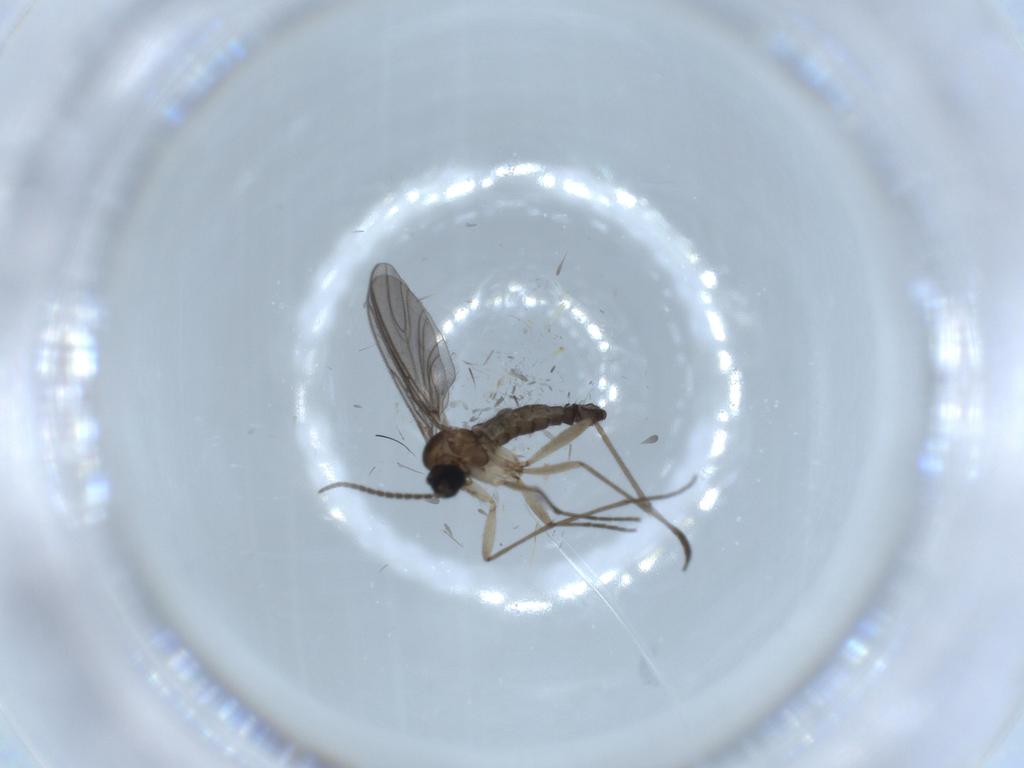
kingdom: Animalia
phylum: Arthropoda
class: Insecta
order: Diptera
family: Sciaridae
